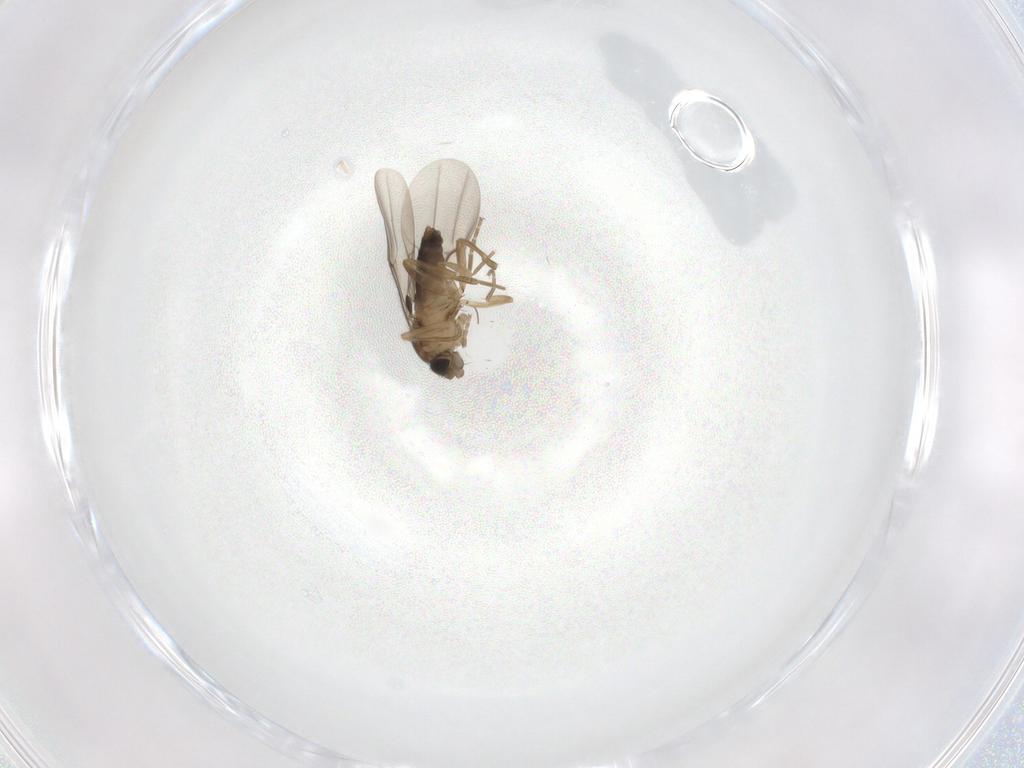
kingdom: Animalia
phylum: Arthropoda
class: Insecta
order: Diptera
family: Phoridae
